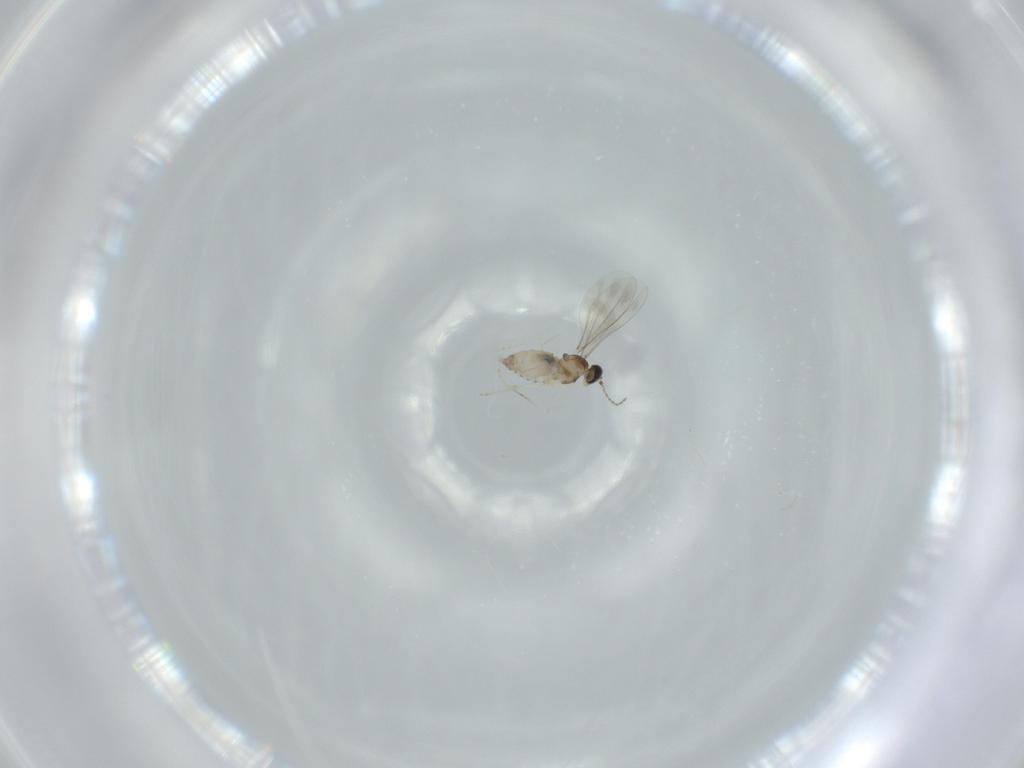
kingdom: Animalia
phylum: Arthropoda
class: Insecta
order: Diptera
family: Cecidomyiidae
